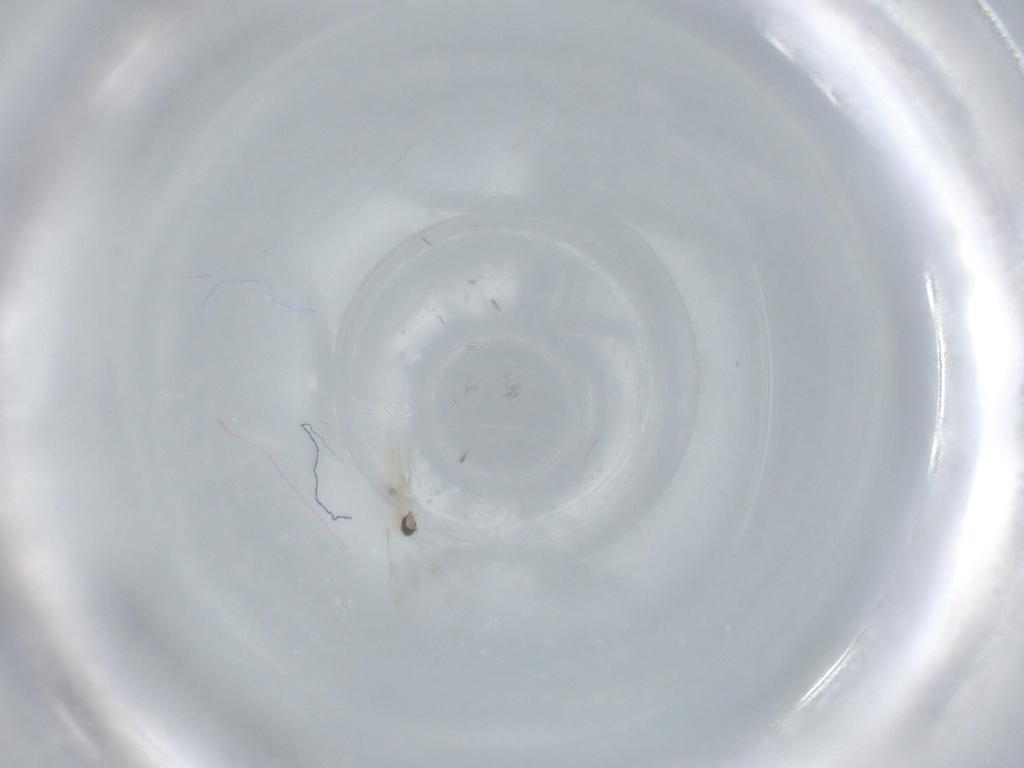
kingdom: Animalia
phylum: Arthropoda
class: Insecta
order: Diptera
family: Cecidomyiidae
